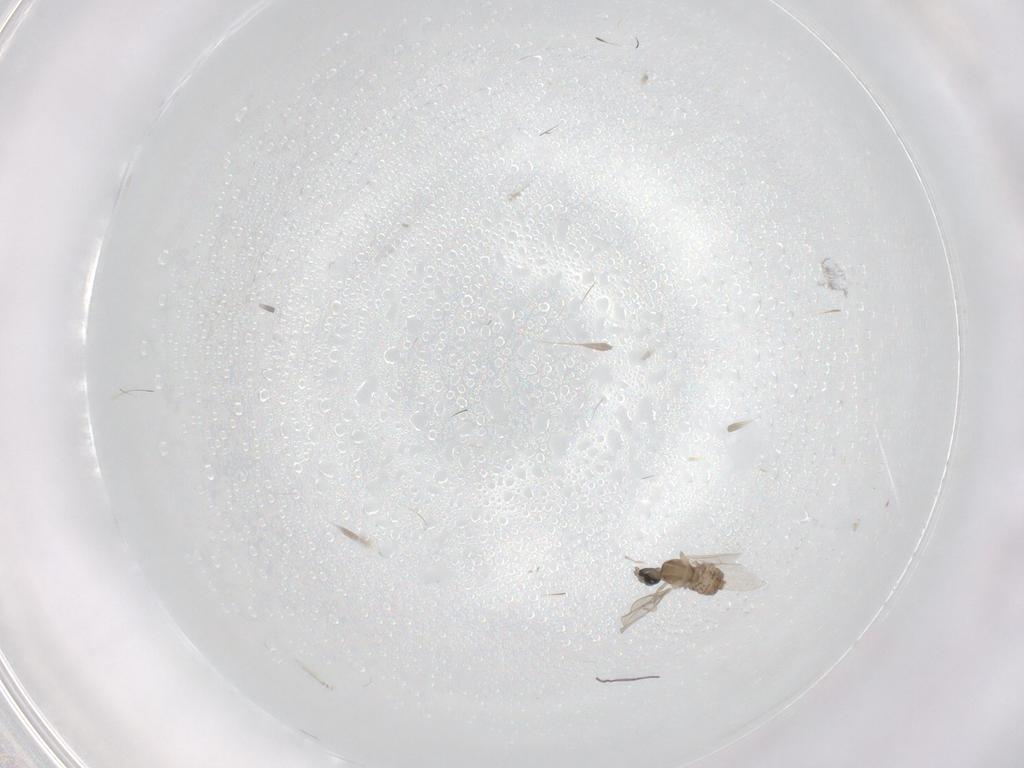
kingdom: Animalia
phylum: Arthropoda
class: Insecta
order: Diptera
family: Cecidomyiidae
